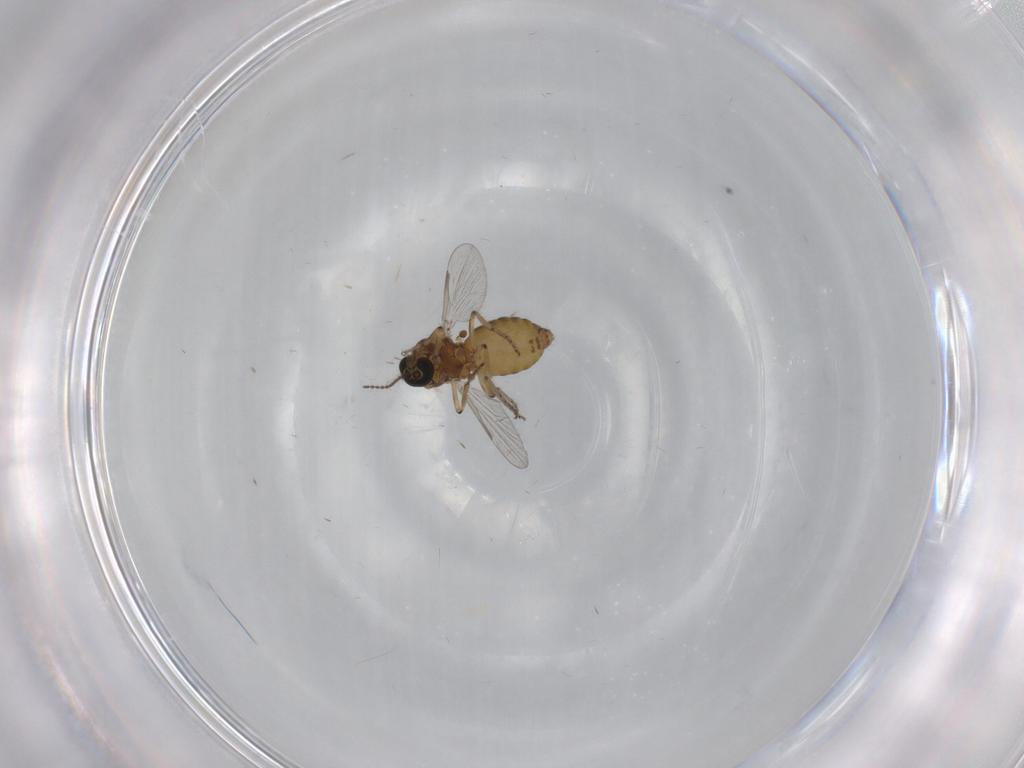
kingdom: Animalia
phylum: Arthropoda
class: Insecta
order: Diptera
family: Ceratopogonidae
